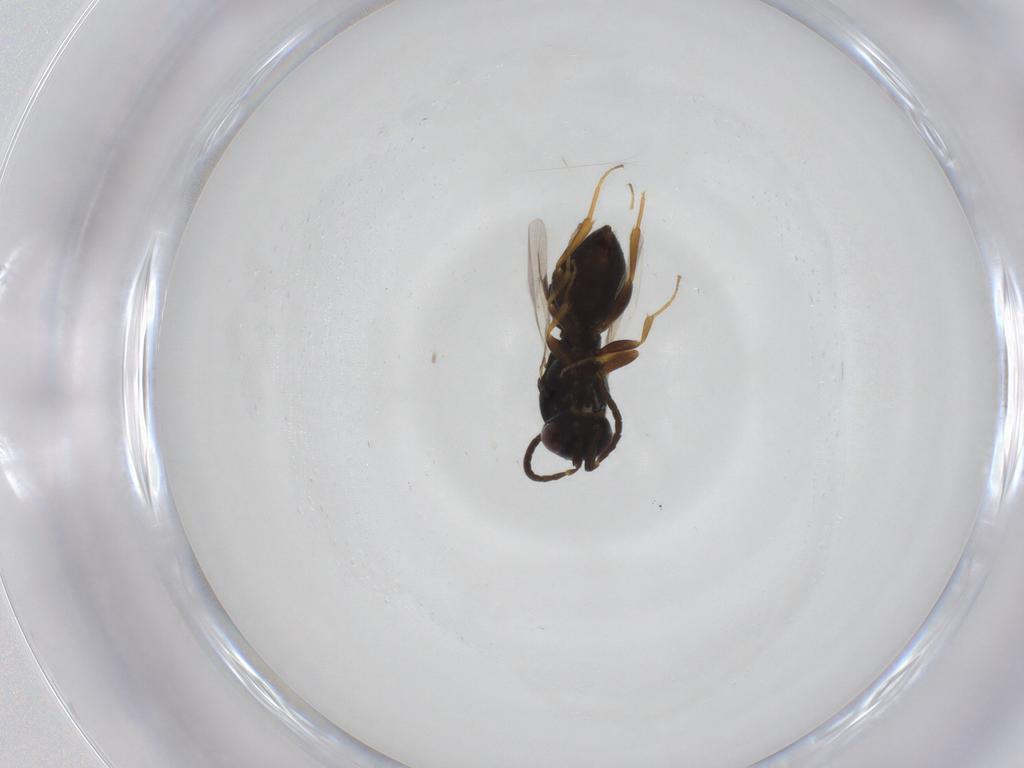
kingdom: Animalia
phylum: Arthropoda
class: Insecta
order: Hymenoptera
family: Megaspilidae
